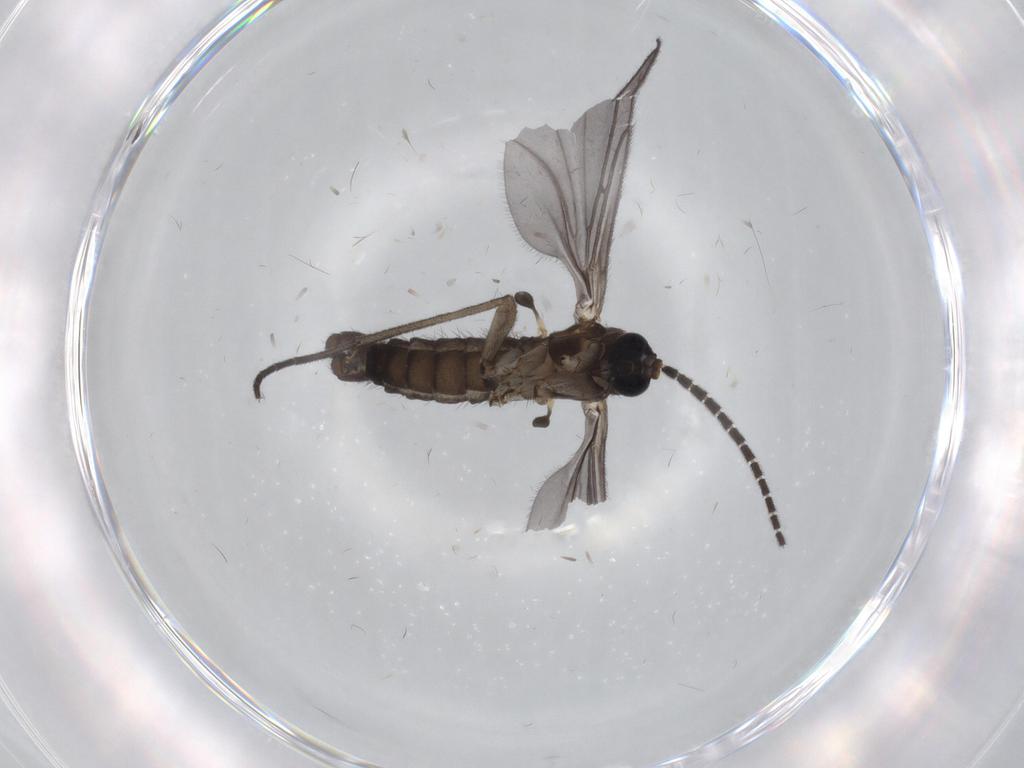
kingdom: Animalia
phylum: Arthropoda
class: Insecta
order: Diptera
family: Sciaridae
